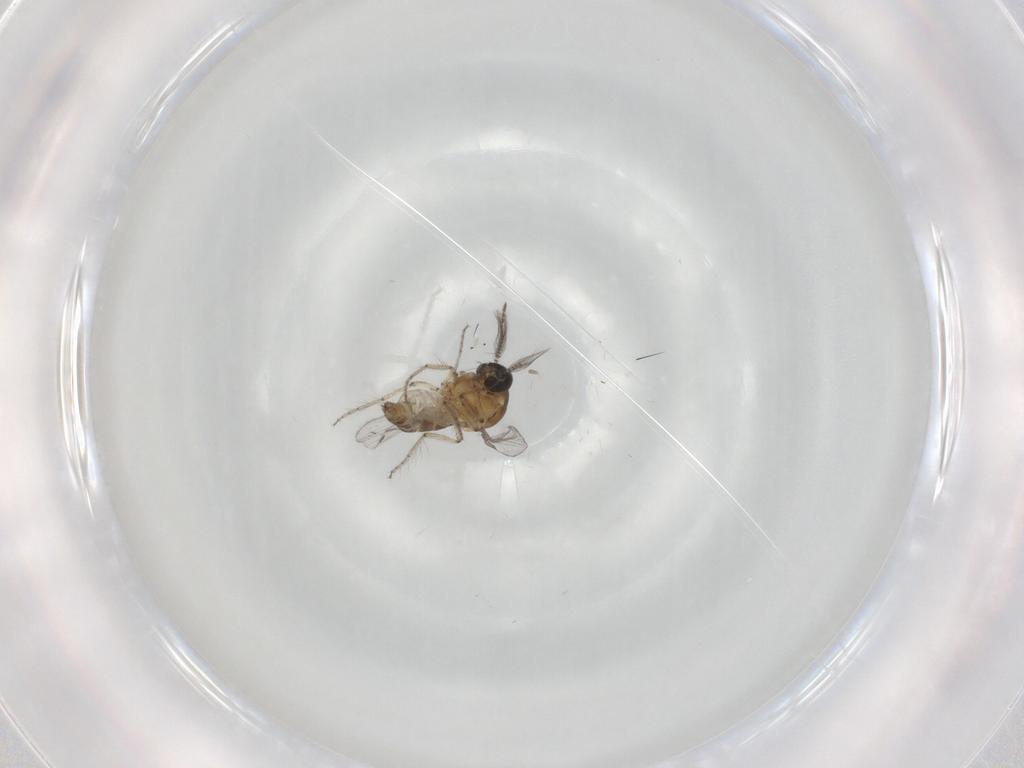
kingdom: Animalia
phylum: Arthropoda
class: Insecta
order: Diptera
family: Ceratopogonidae
